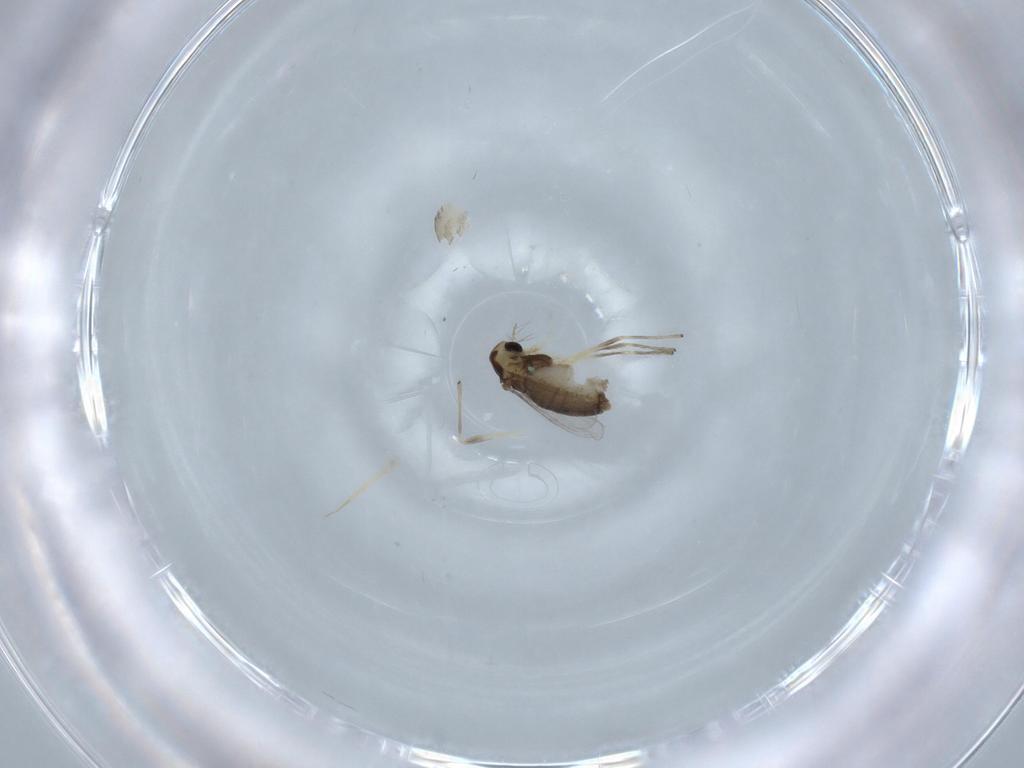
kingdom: Animalia
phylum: Arthropoda
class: Insecta
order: Diptera
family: Chironomidae
